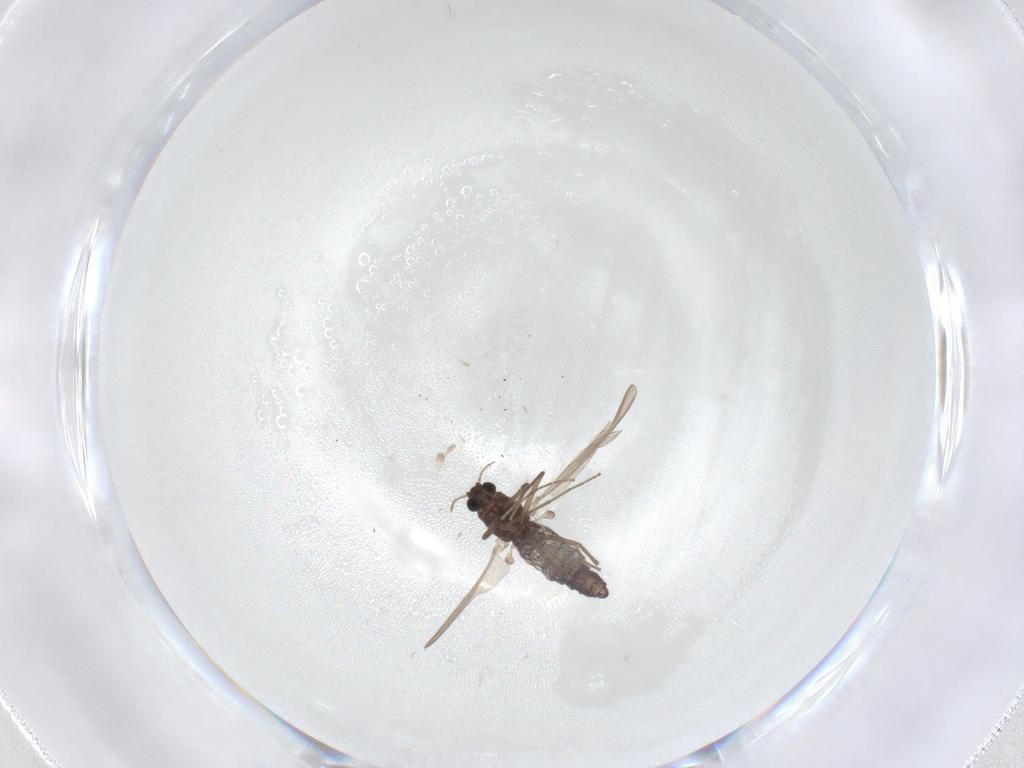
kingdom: Animalia
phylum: Arthropoda
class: Insecta
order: Diptera
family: Chironomidae
